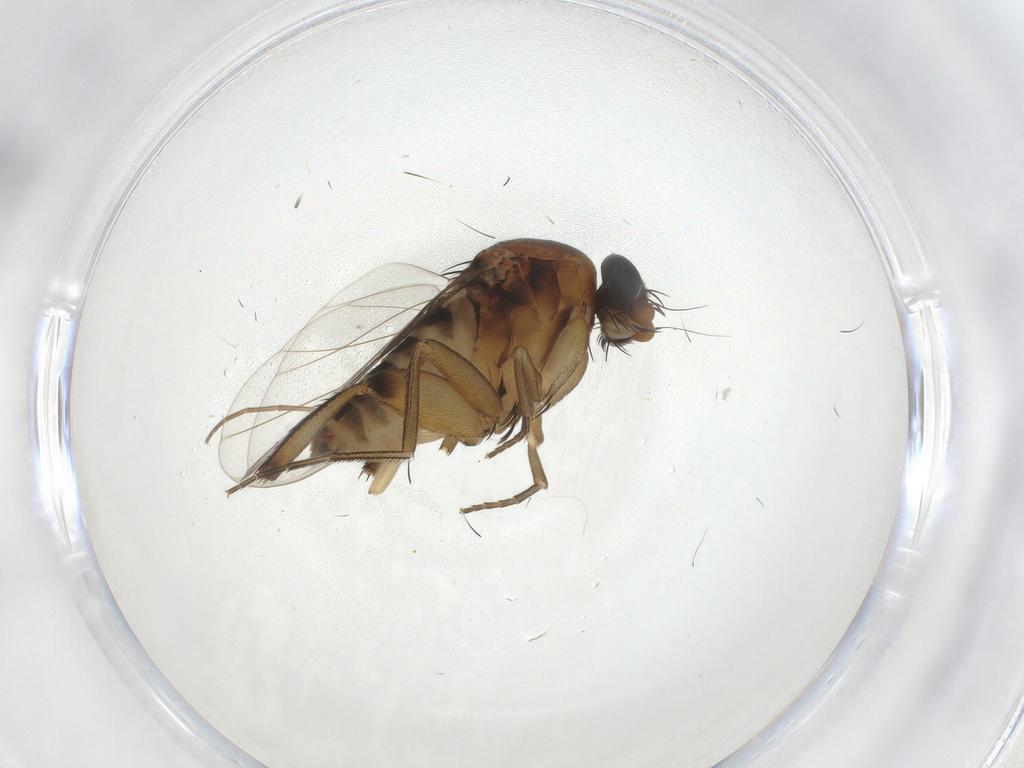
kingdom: Animalia
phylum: Arthropoda
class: Insecta
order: Diptera
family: Phoridae
